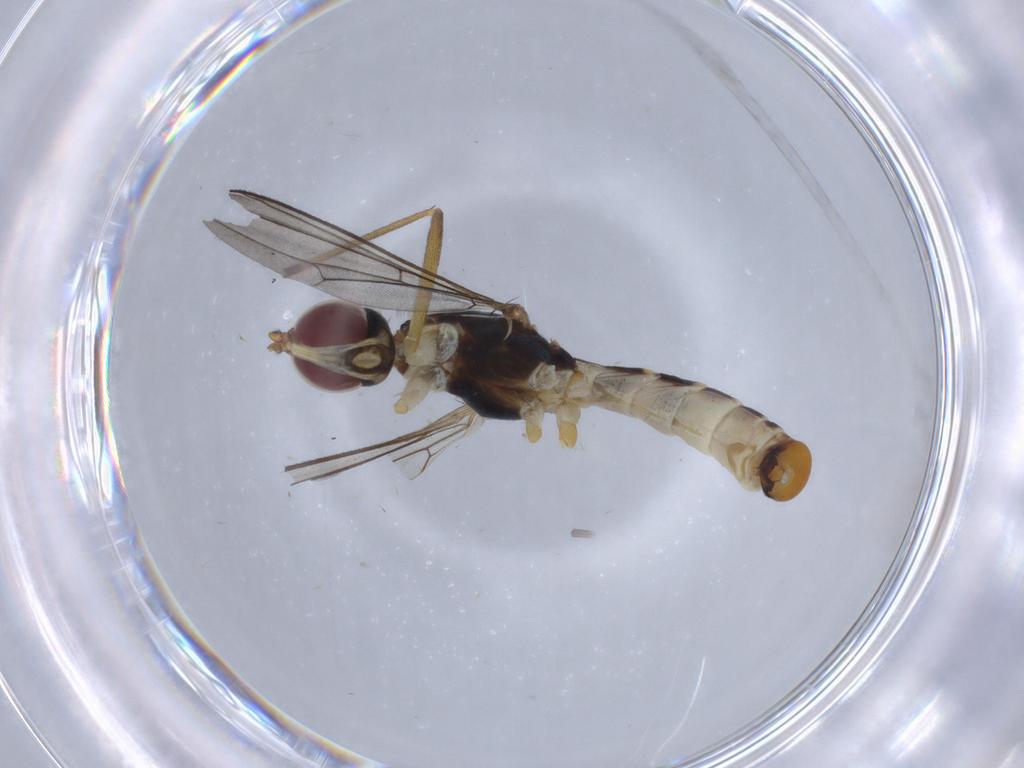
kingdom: Animalia
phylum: Arthropoda
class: Insecta
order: Diptera
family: Micropezidae
